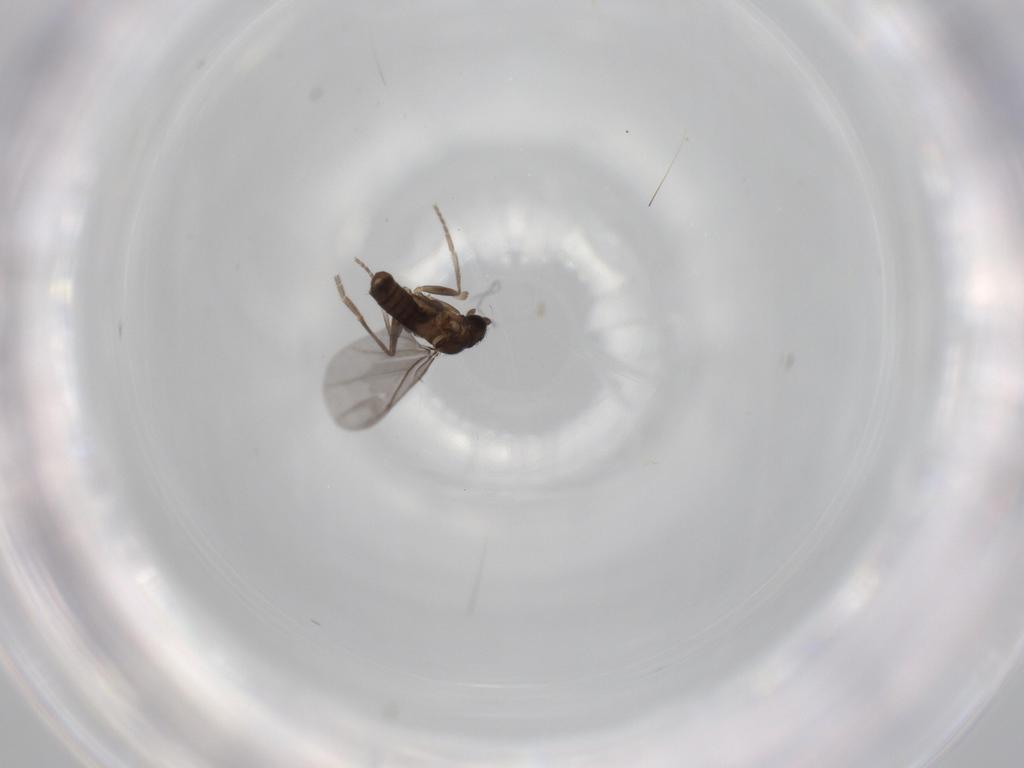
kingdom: Animalia
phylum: Arthropoda
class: Insecta
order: Diptera
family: Phoridae
